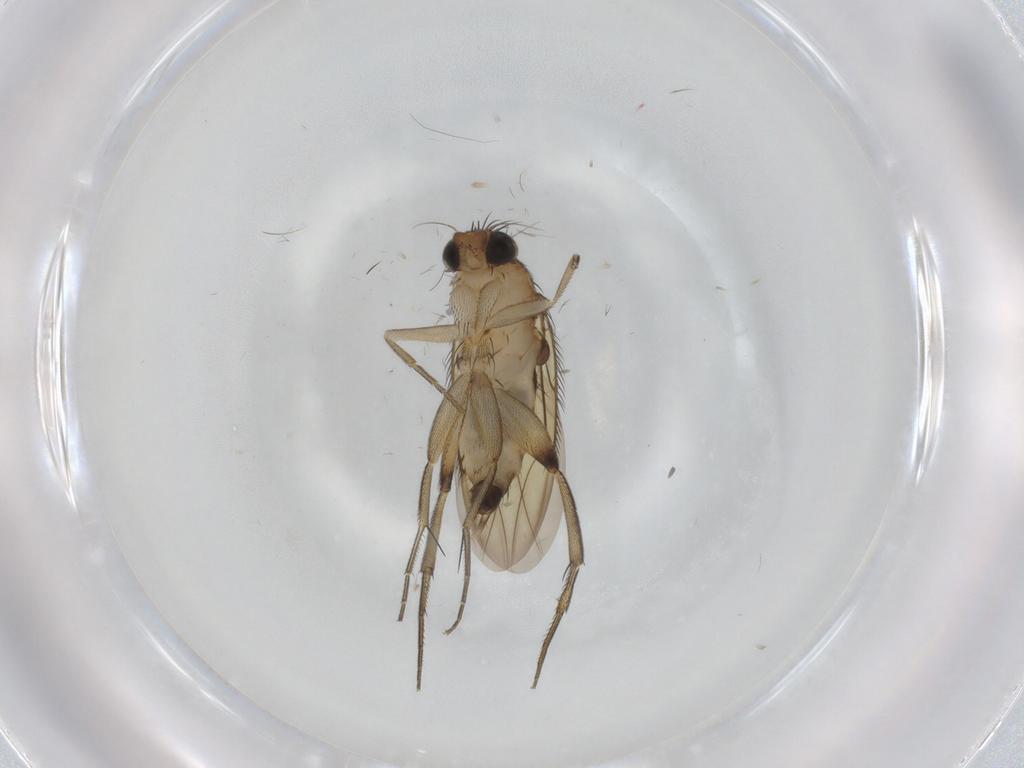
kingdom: Animalia
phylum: Arthropoda
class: Insecta
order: Diptera
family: Phoridae
